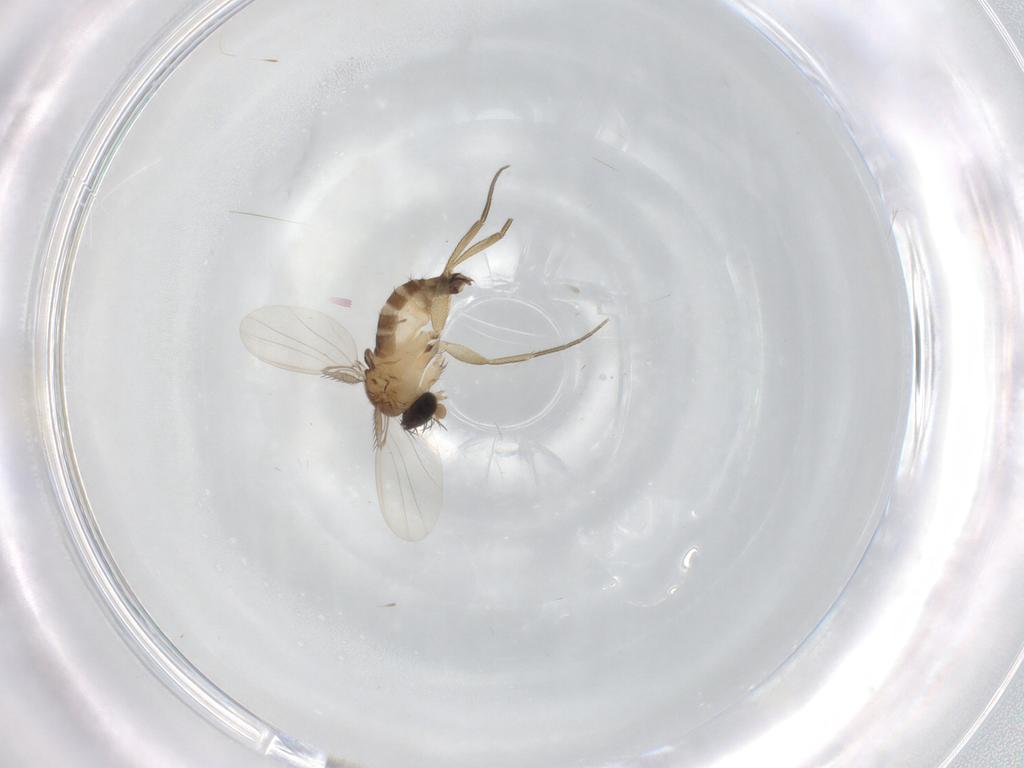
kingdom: Animalia
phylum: Arthropoda
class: Insecta
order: Diptera
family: Phoridae
